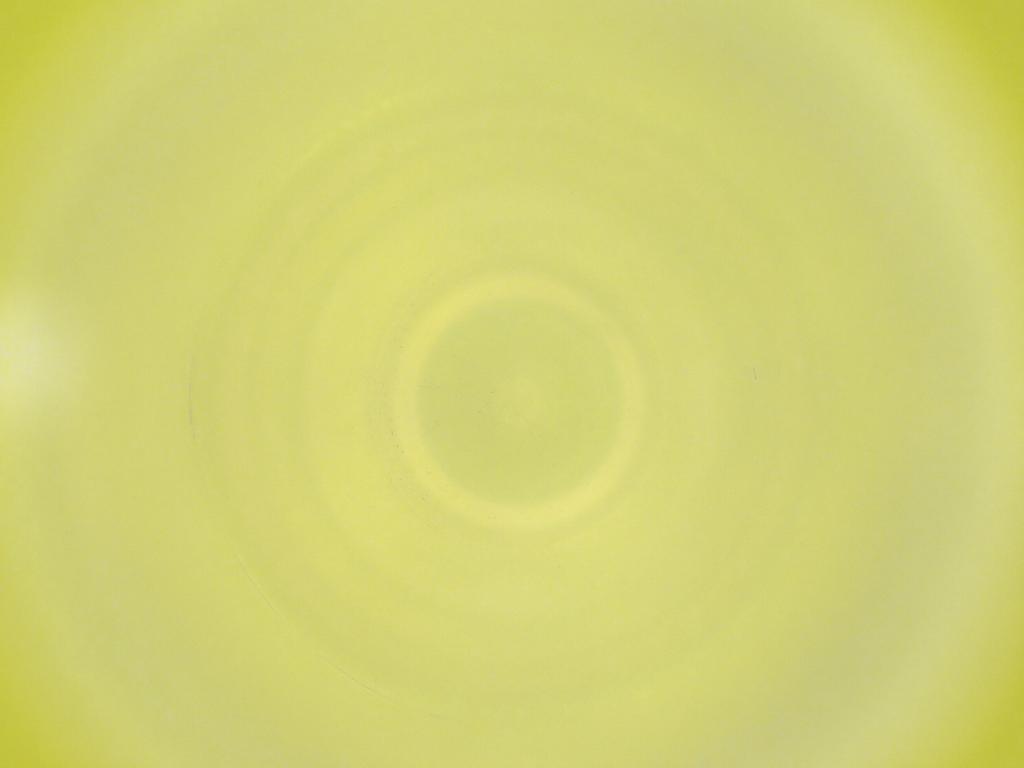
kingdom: Animalia
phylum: Arthropoda
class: Insecta
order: Diptera
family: Cecidomyiidae
